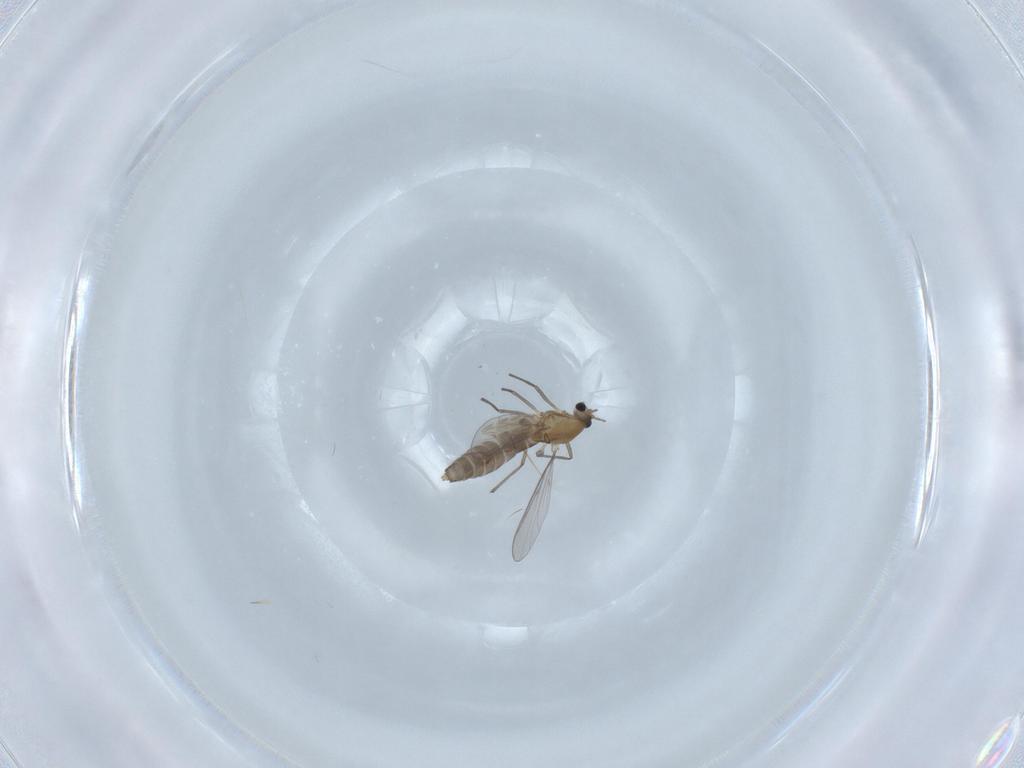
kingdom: Animalia
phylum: Arthropoda
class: Insecta
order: Diptera
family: Chironomidae
